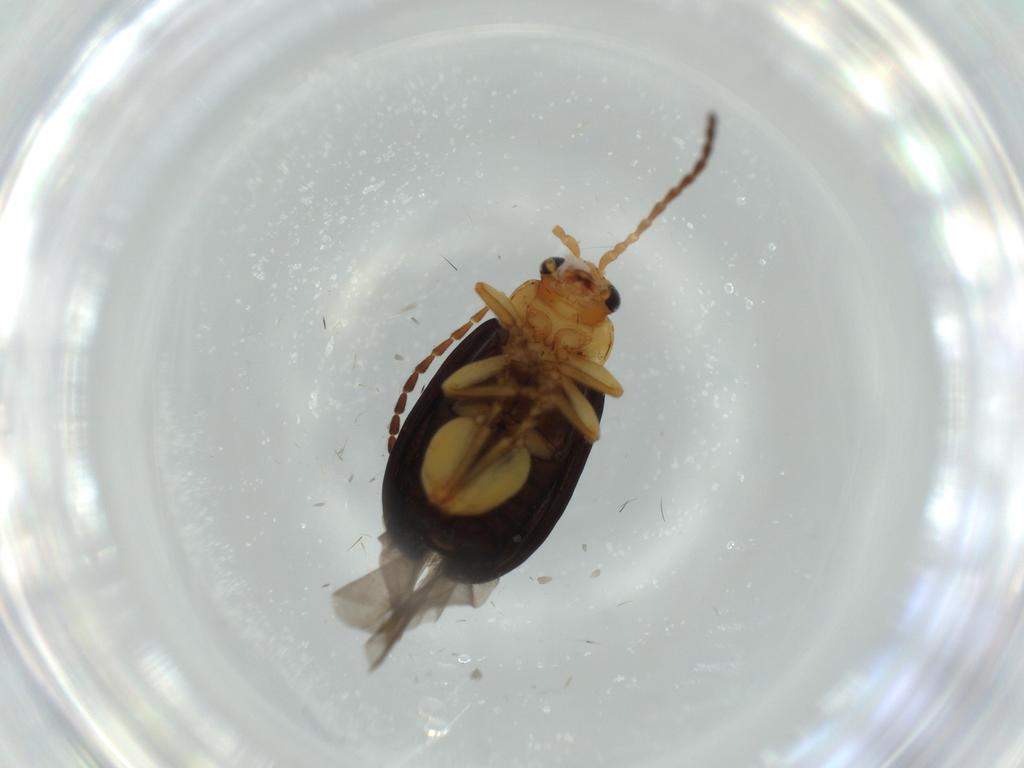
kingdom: Animalia
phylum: Arthropoda
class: Insecta
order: Coleoptera
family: Chrysomelidae
